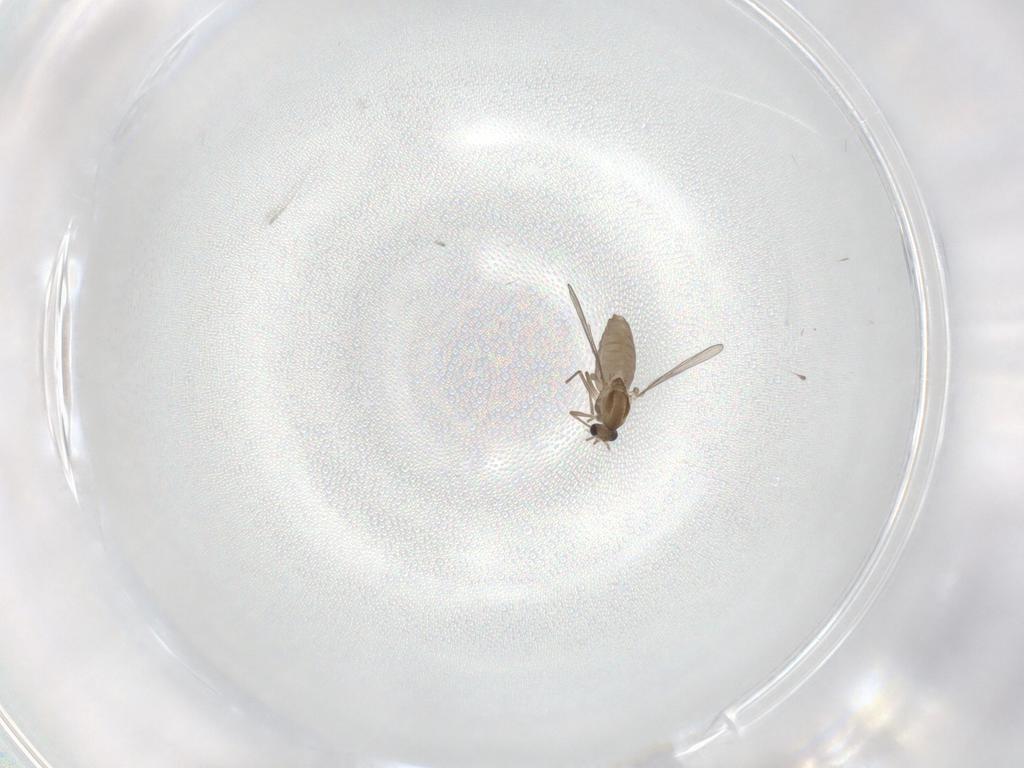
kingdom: Animalia
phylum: Arthropoda
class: Insecta
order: Diptera
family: Chironomidae
